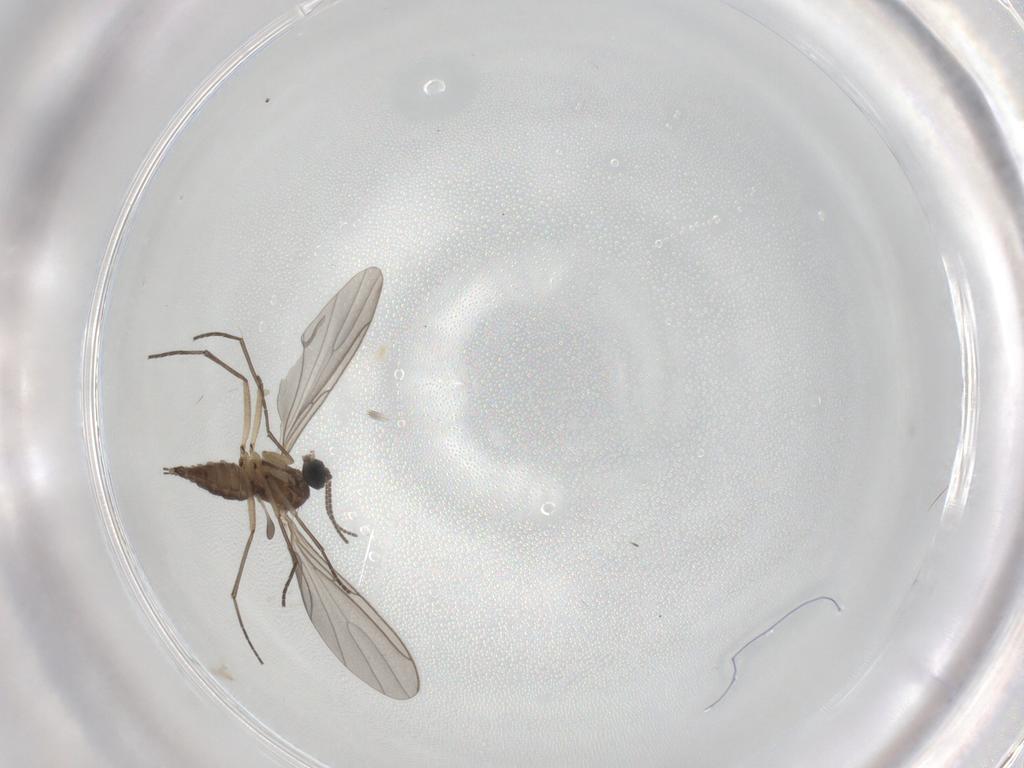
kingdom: Animalia
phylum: Arthropoda
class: Insecta
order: Diptera
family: Sciaridae
